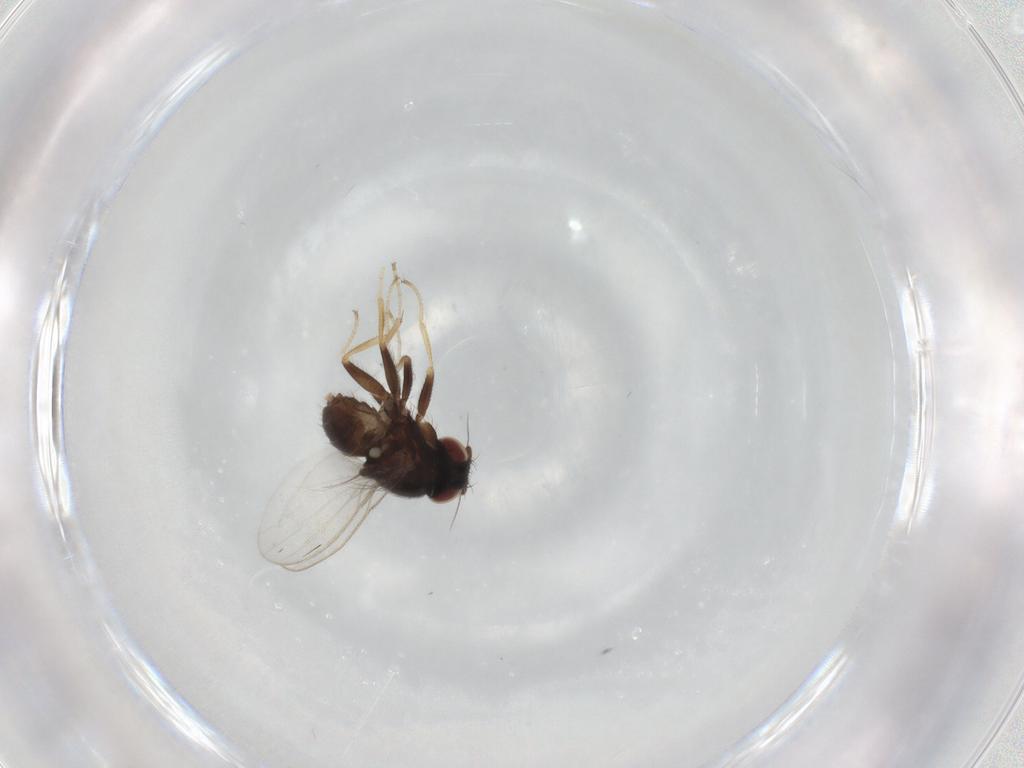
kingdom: Animalia
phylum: Arthropoda
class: Insecta
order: Diptera
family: Milichiidae
